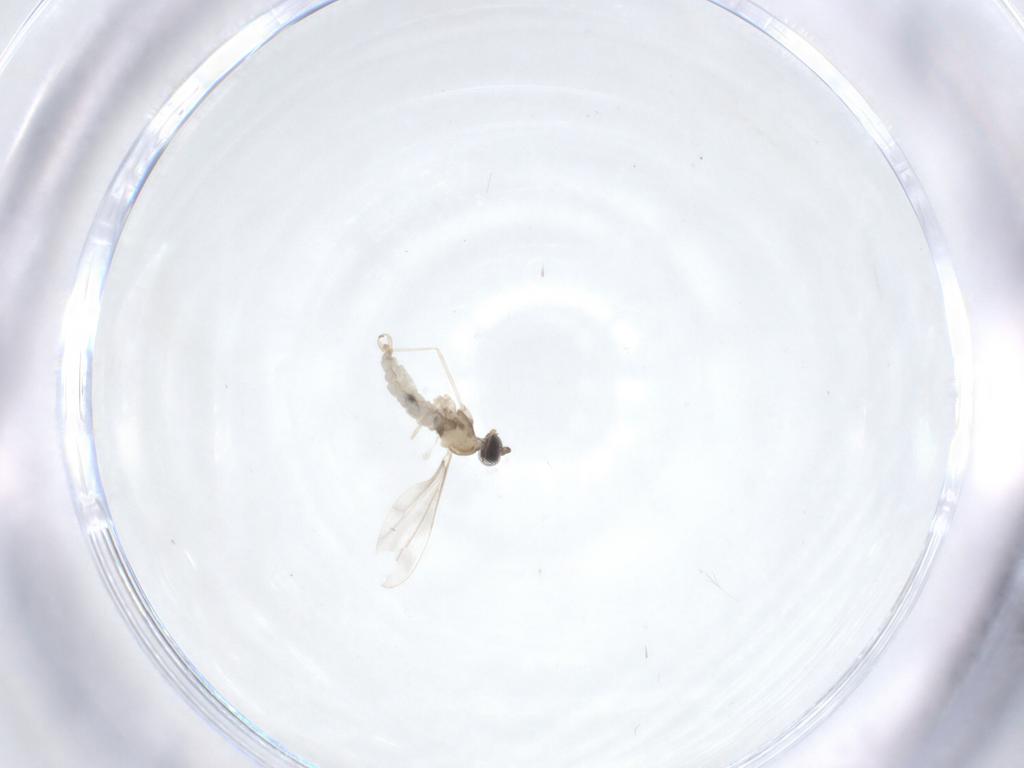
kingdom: Animalia
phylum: Arthropoda
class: Insecta
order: Diptera
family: Cecidomyiidae
